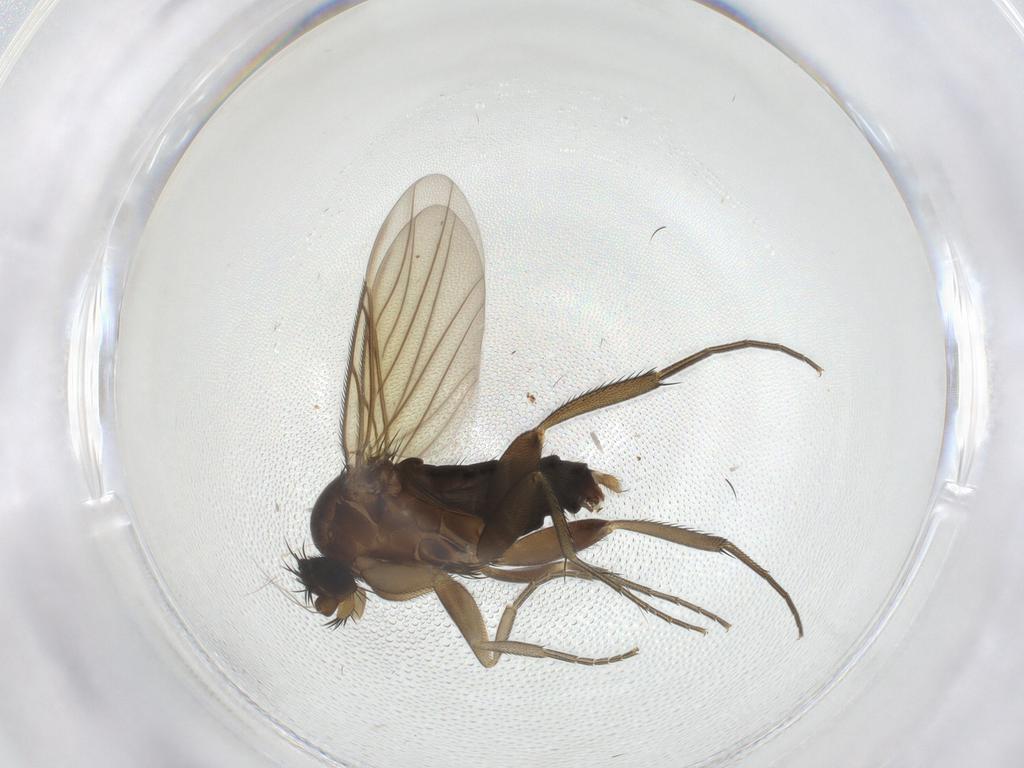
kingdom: Animalia
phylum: Arthropoda
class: Insecta
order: Diptera
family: Phoridae
